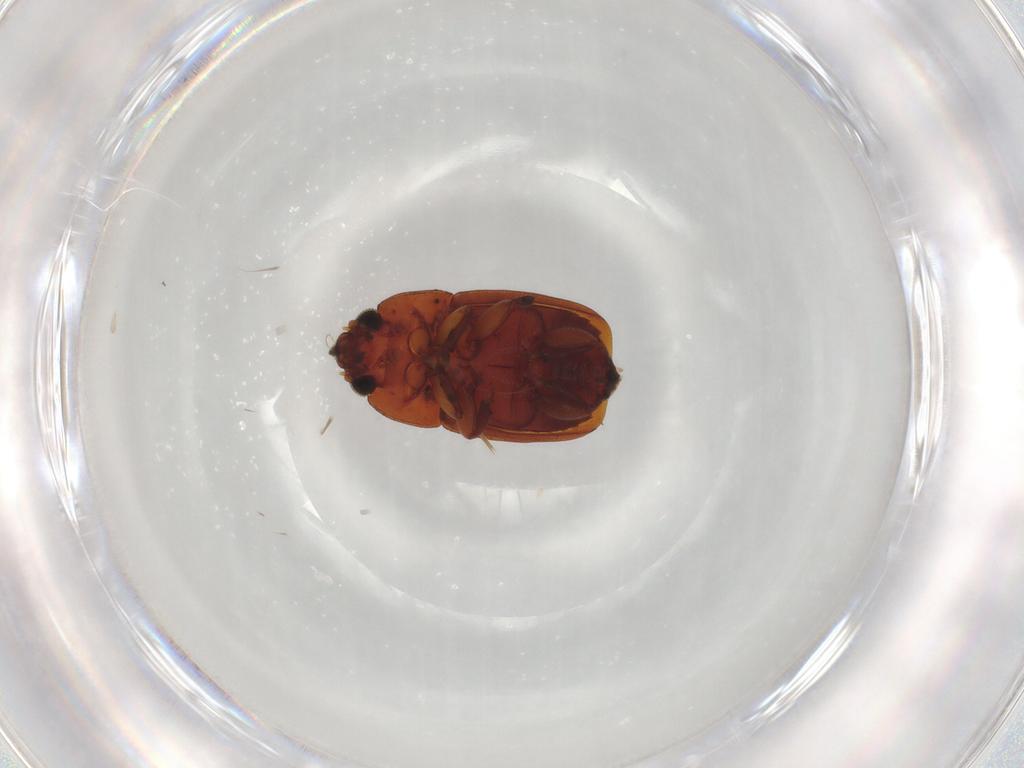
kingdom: Animalia
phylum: Arthropoda
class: Insecta
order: Coleoptera
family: Nitidulidae
